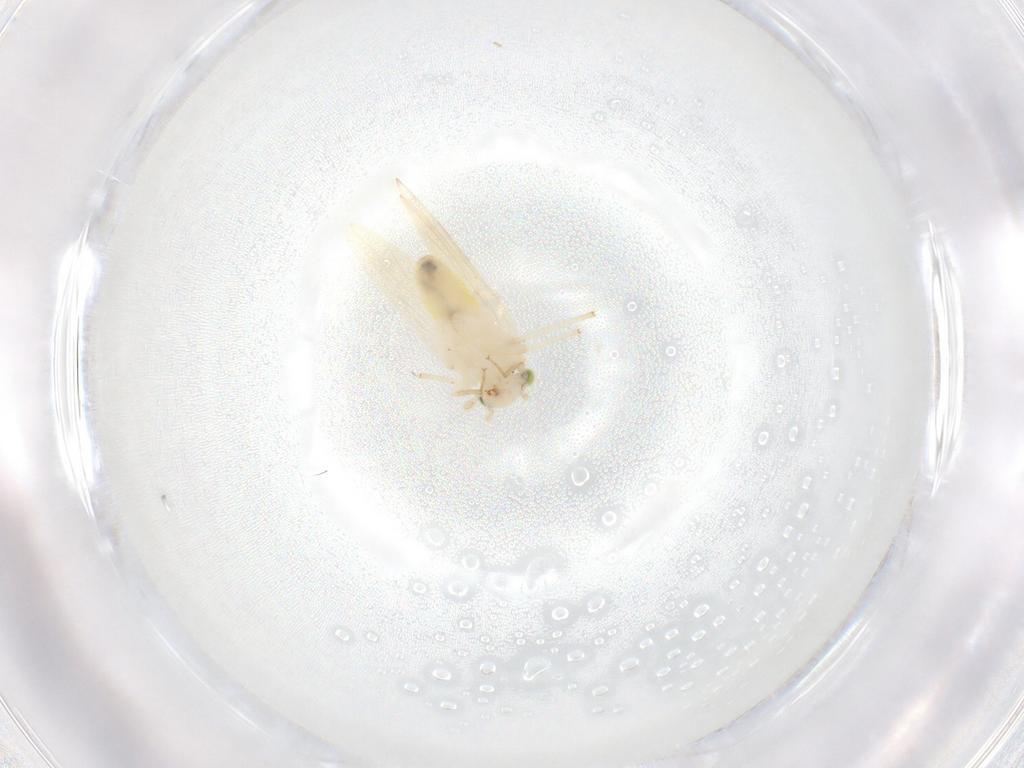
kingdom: Animalia
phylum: Arthropoda
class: Insecta
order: Psocodea
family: Lepidopsocidae
